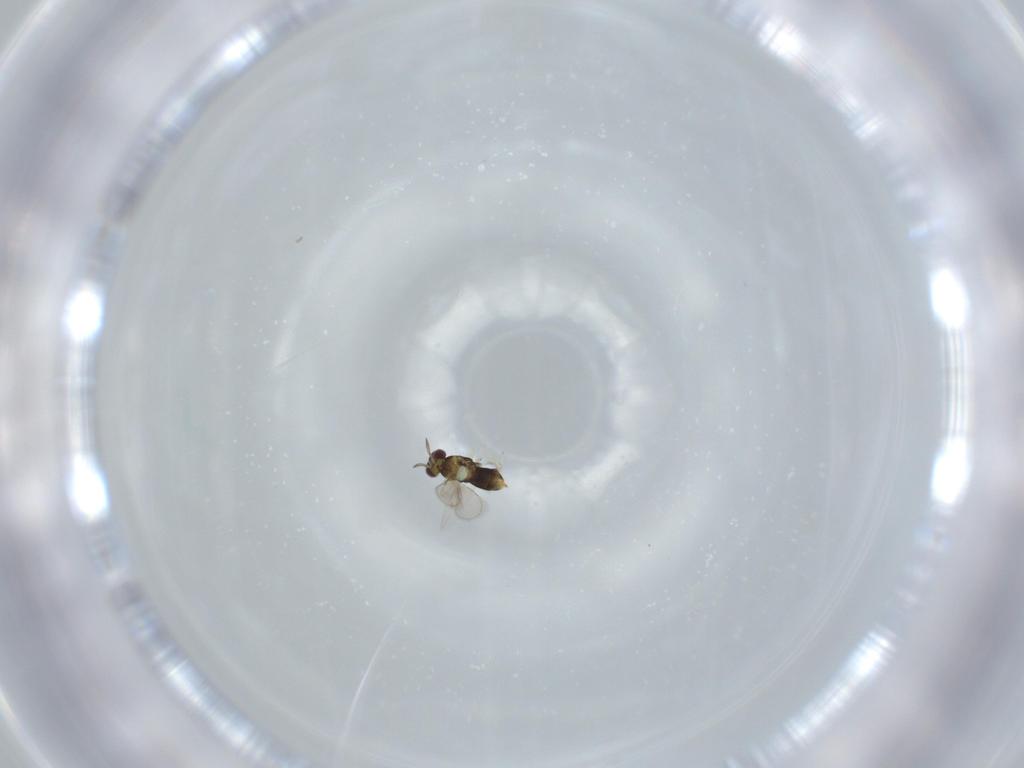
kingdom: Animalia
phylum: Arthropoda
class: Insecta
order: Hymenoptera
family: Aphelinidae
